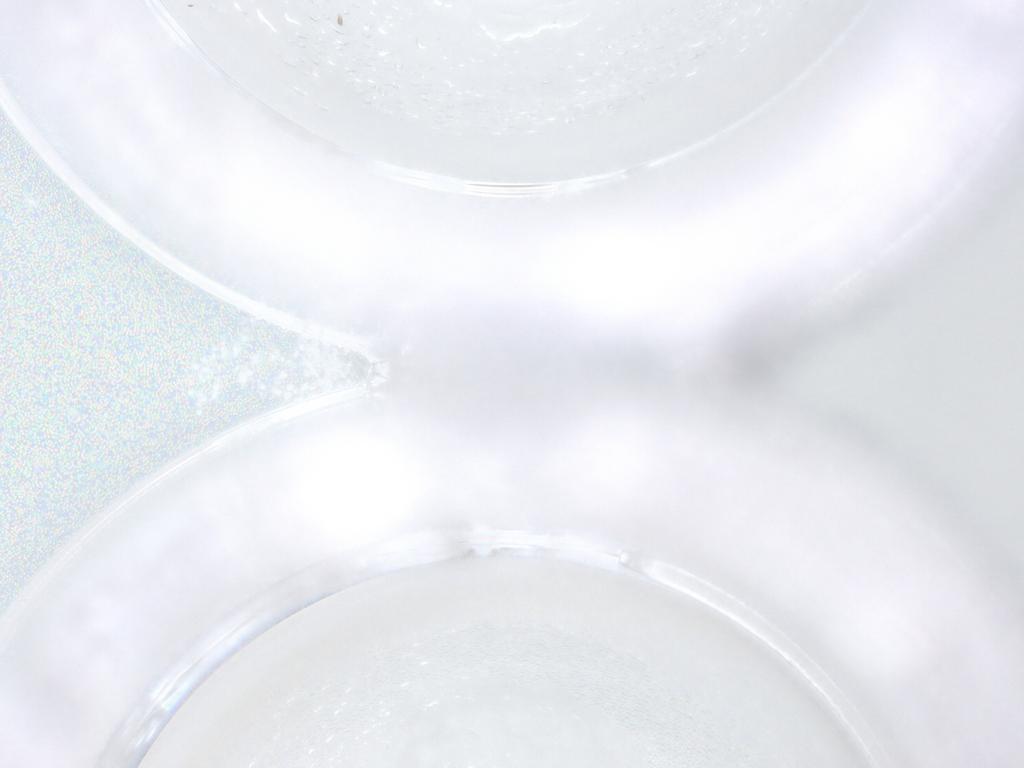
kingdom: Animalia
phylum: Arthropoda
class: Insecta
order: Diptera
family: Ceratopogonidae
